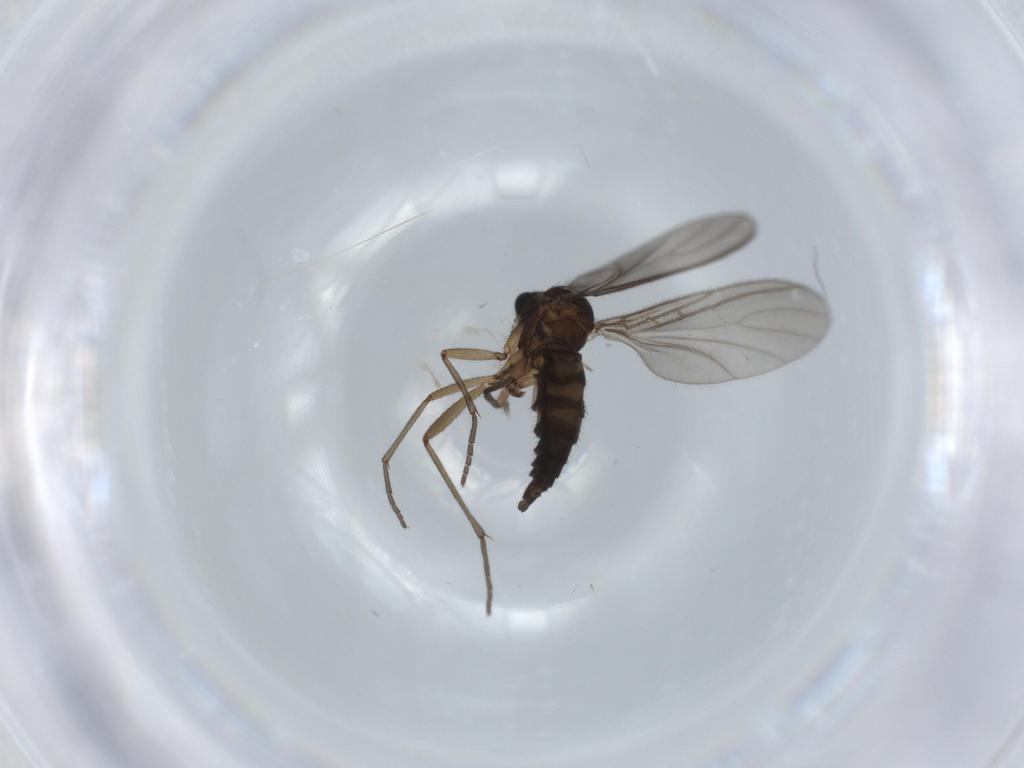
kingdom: Animalia
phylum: Arthropoda
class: Insecta
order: Diptera
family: Sciaridae
